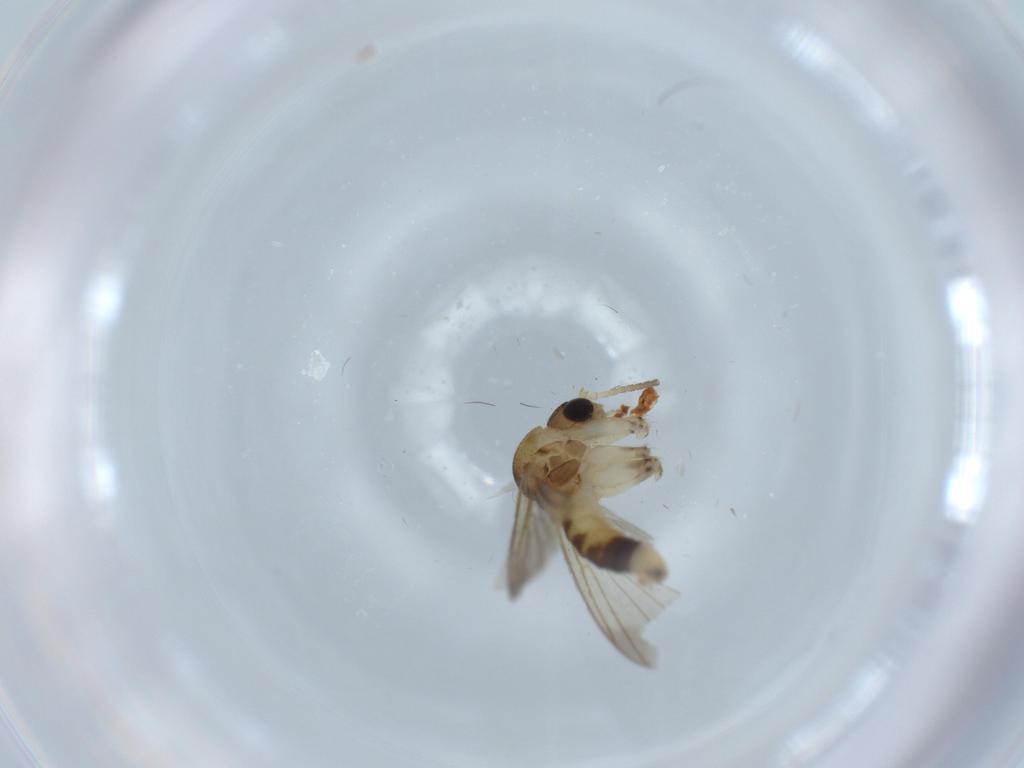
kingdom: Animalia
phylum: Arthropoda
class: Insecta
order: Diptera
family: Mycetophilidae
